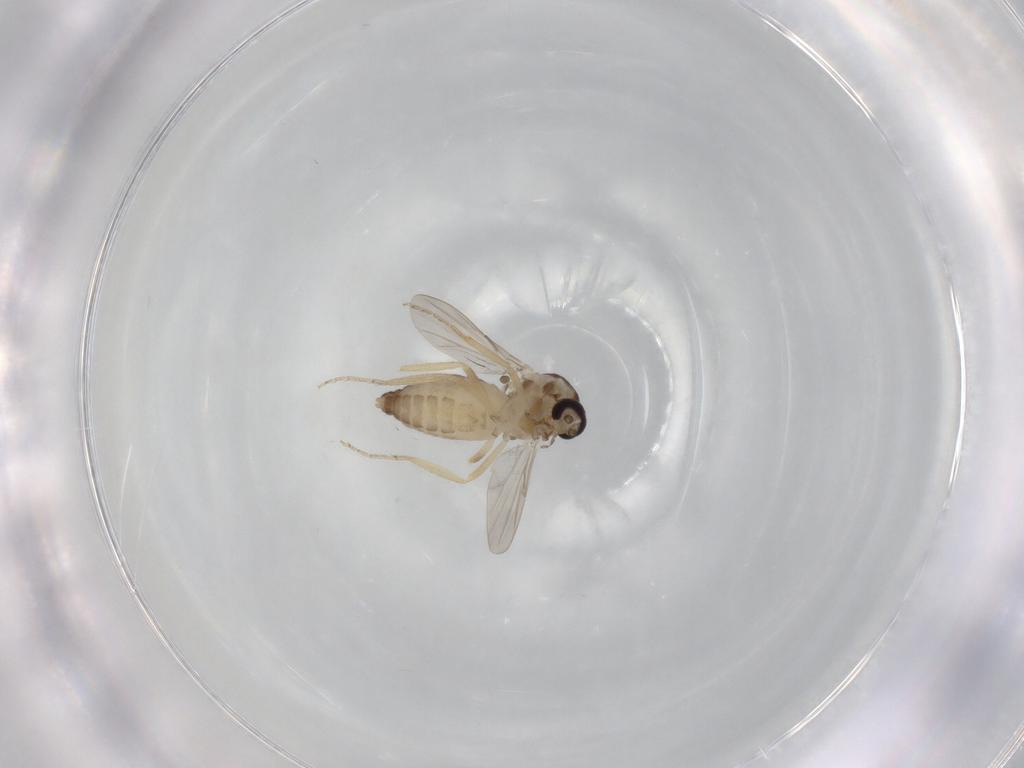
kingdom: Animalia
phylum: Arthropoda
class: Insecta
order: Diptera
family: Ceratopogonidae
